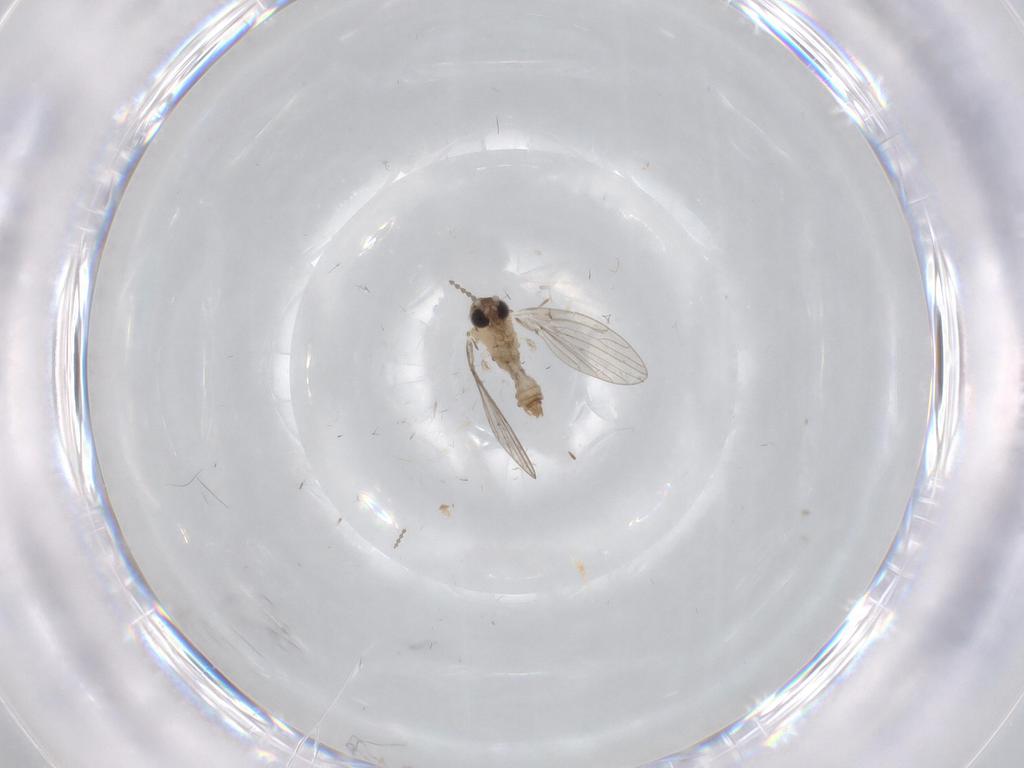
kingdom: Animalia
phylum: Arthropoda
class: Insecta
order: Diptera
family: Cecidomyiidae
